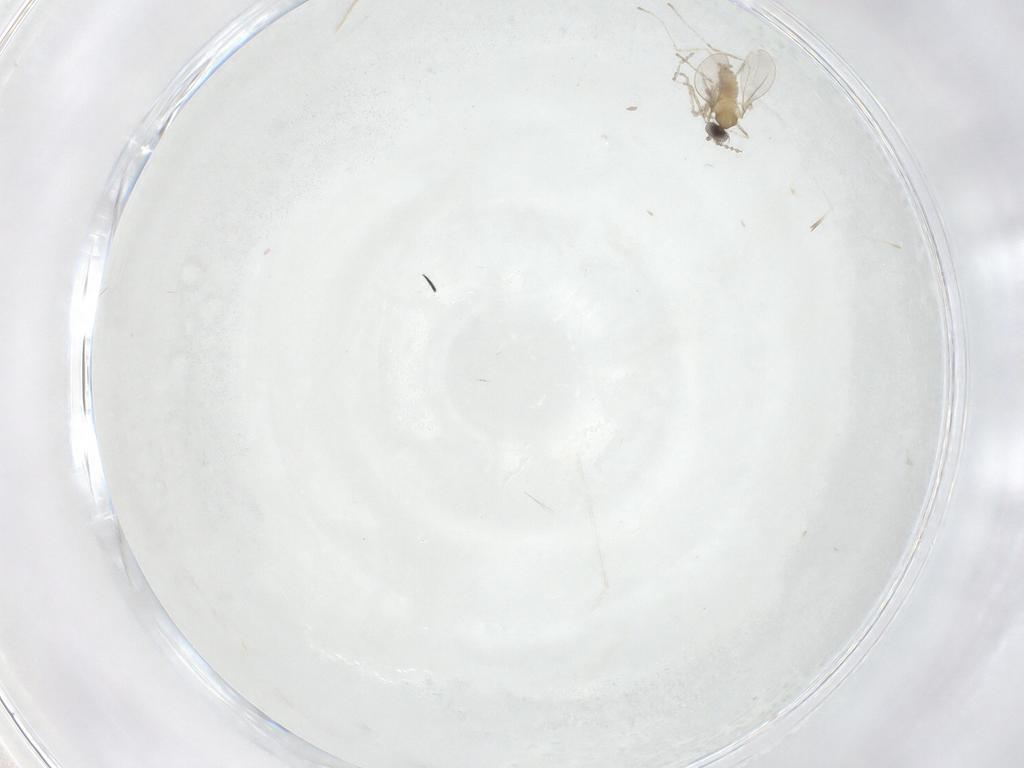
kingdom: Animalia
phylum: Arthropoda
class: Insecta
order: Diptera
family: Cecidomyiidae
